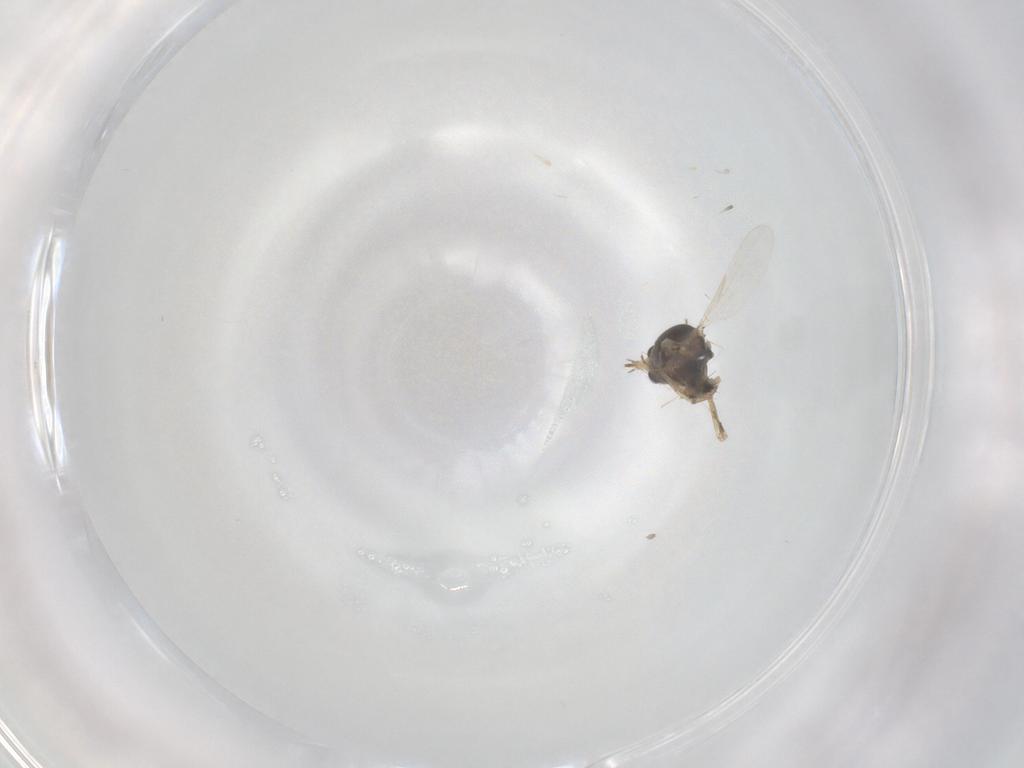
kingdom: Animalia
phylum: Arthropoda
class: Insecta
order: Diptera
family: Ceratopogonidae
